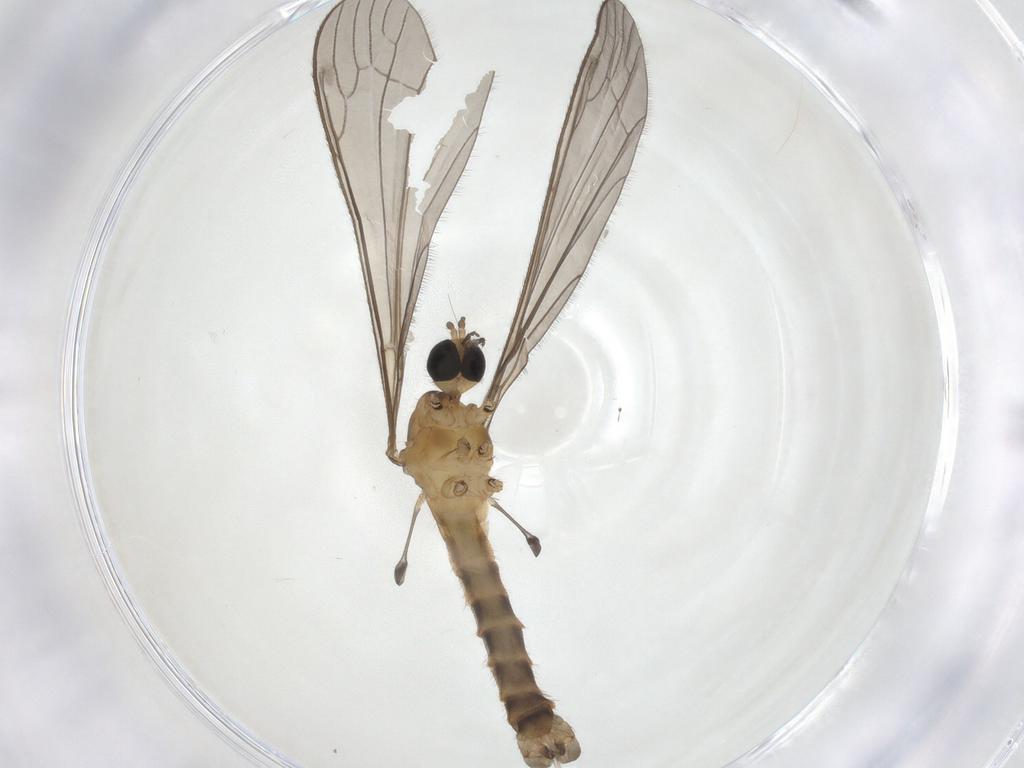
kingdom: Animalia
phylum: Arthropoda
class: Insecta
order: Diptera
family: Limoniidae
